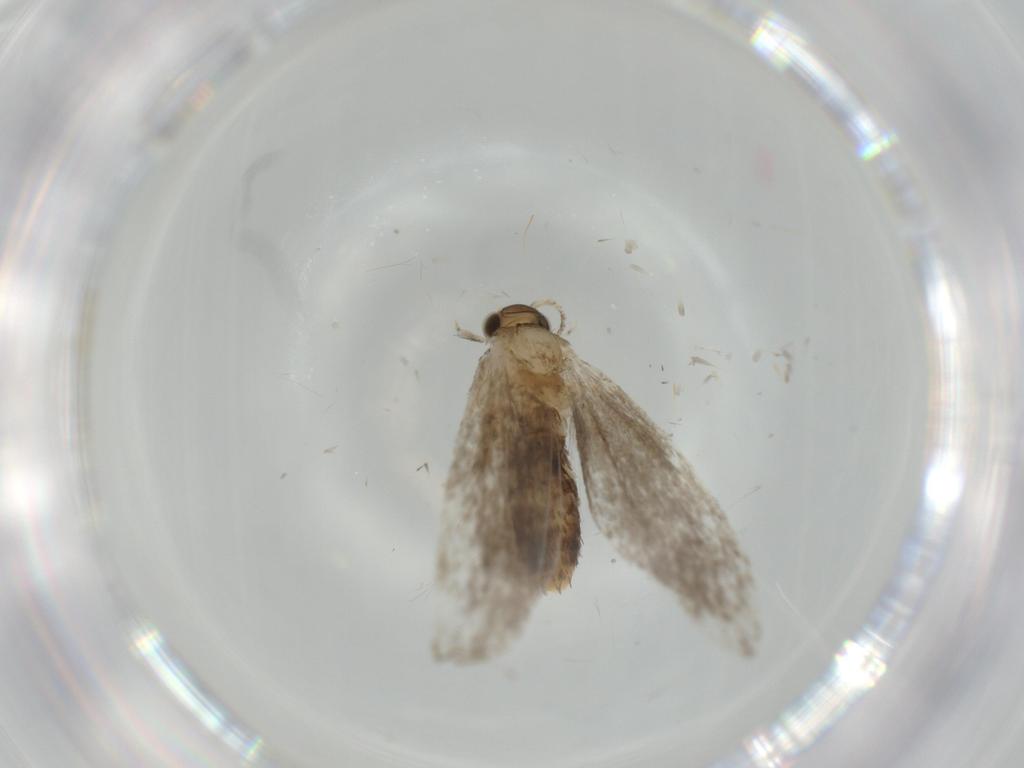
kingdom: Animalia
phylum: Arthropoda
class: Insecta
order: Lepidoptera
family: Tineidae
